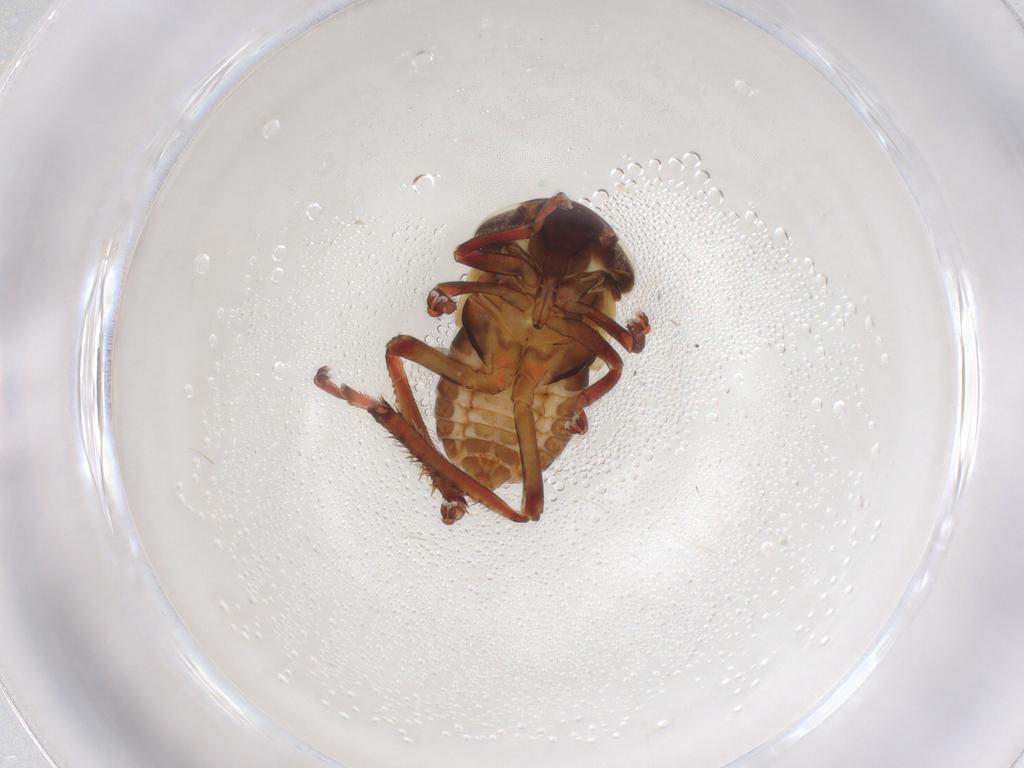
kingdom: Animalia
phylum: Arthropoda
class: Insecta
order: Hemiptera
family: Cicadellidae
